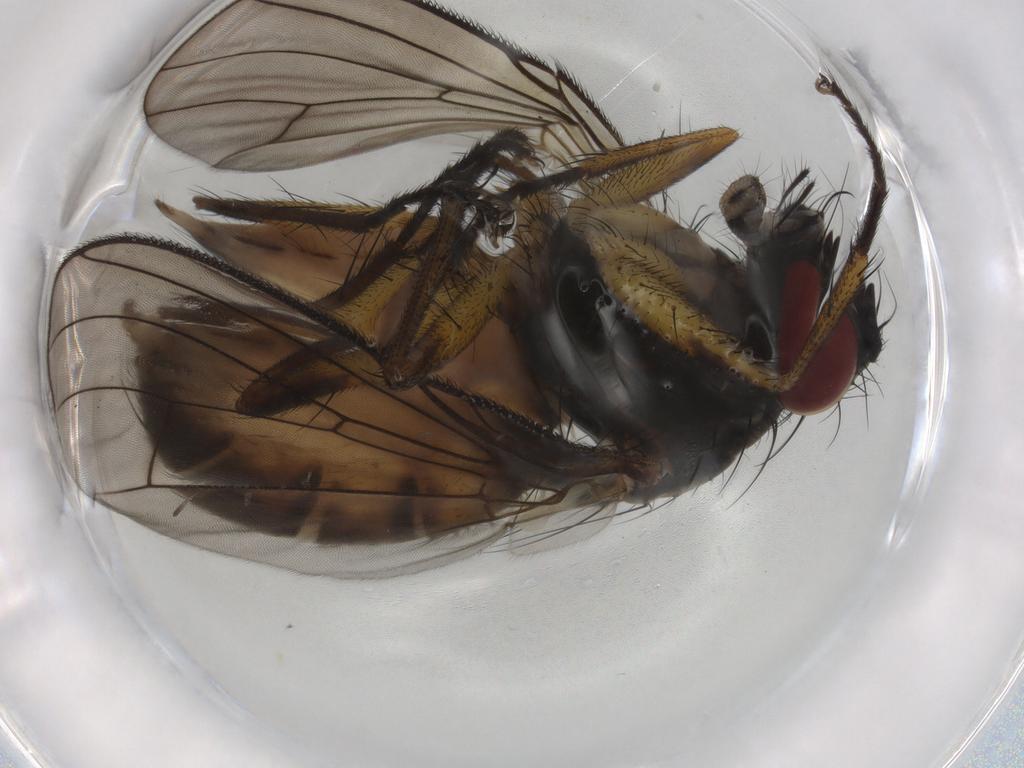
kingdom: Animalia
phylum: Arthropoda
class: Insecta
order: Diptera
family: Muscidae
